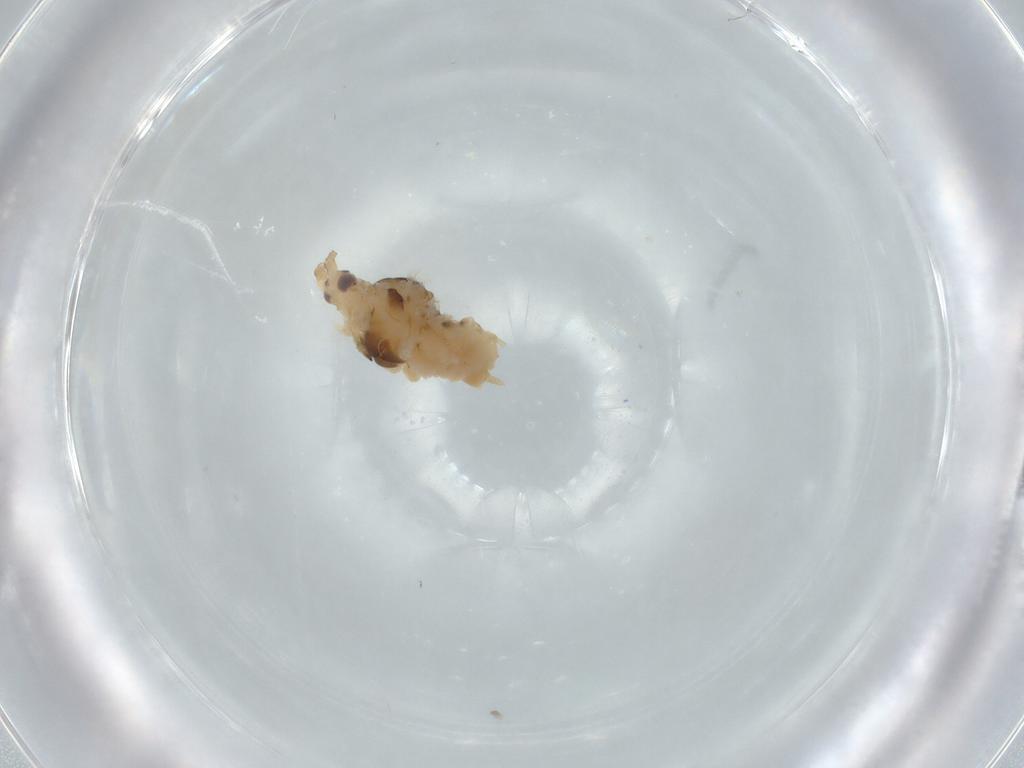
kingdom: Animalia
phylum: Arthropoda
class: Insecta
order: Hemiptera
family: Aphididae
